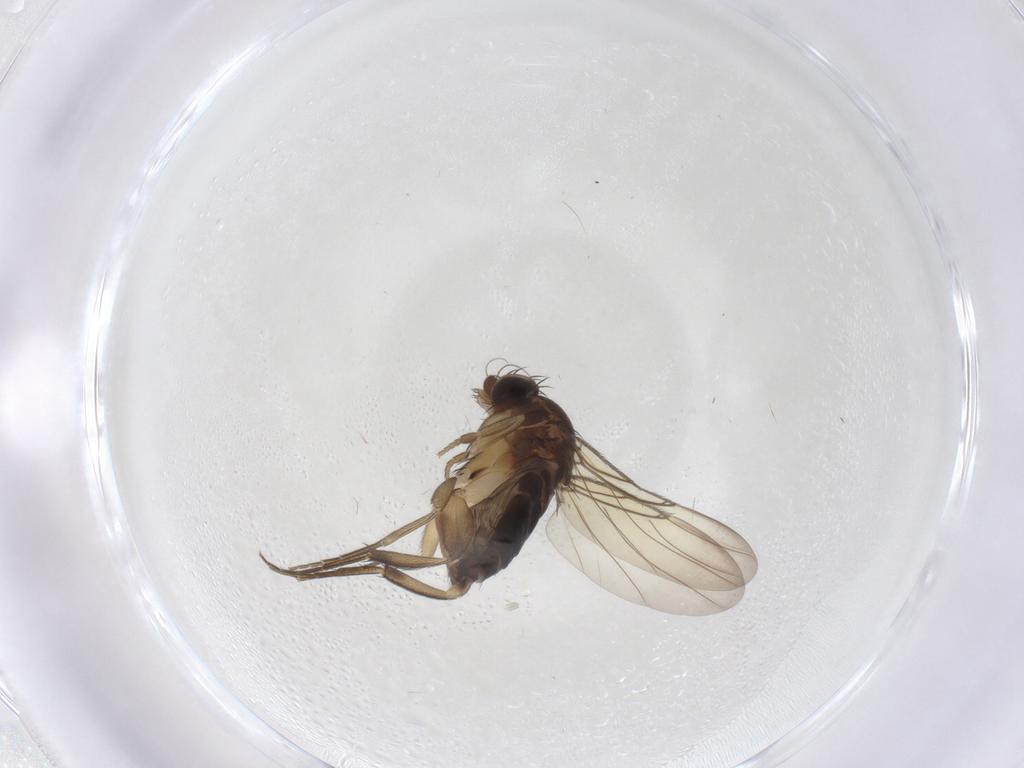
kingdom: Animalia
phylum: Arthropoda
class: Insecta
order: Diptera
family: Phoridae
